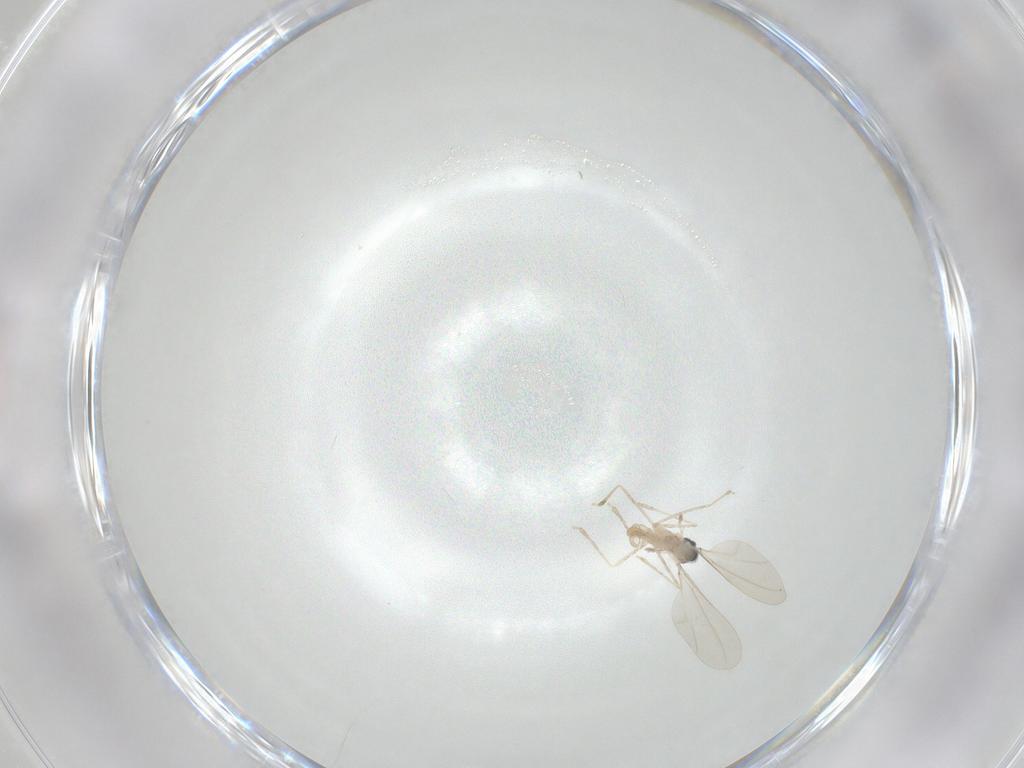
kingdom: Animalia
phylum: Arthropoda
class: Insecta
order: Diptera
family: Cecidomyiidae
